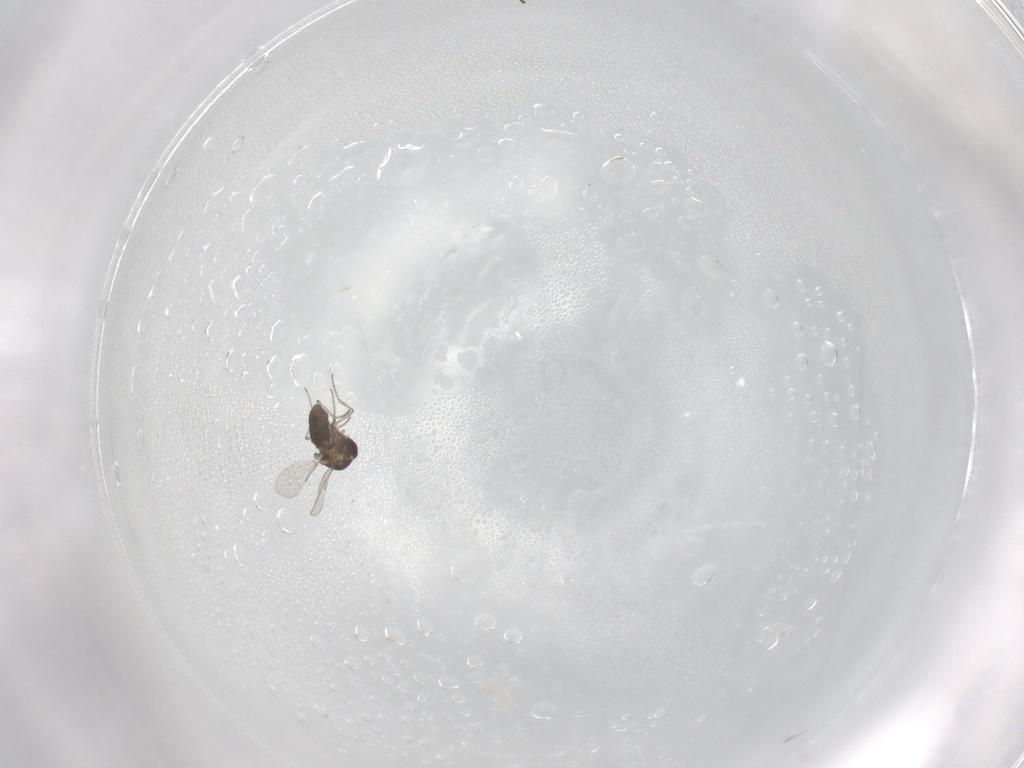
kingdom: Animalia
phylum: Arthropoda
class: Insecta
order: Diptera
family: Ceratopogonidae
